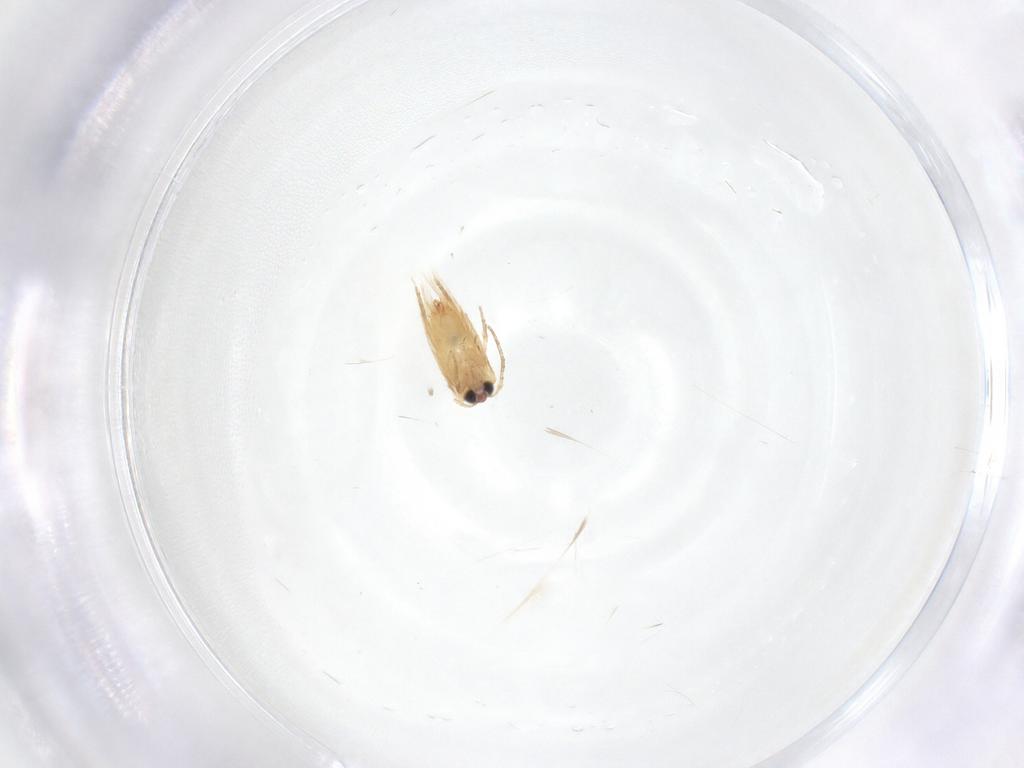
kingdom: Animalia
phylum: Arthropoda
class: Insecta
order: Lepidoptera
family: Crambidae
